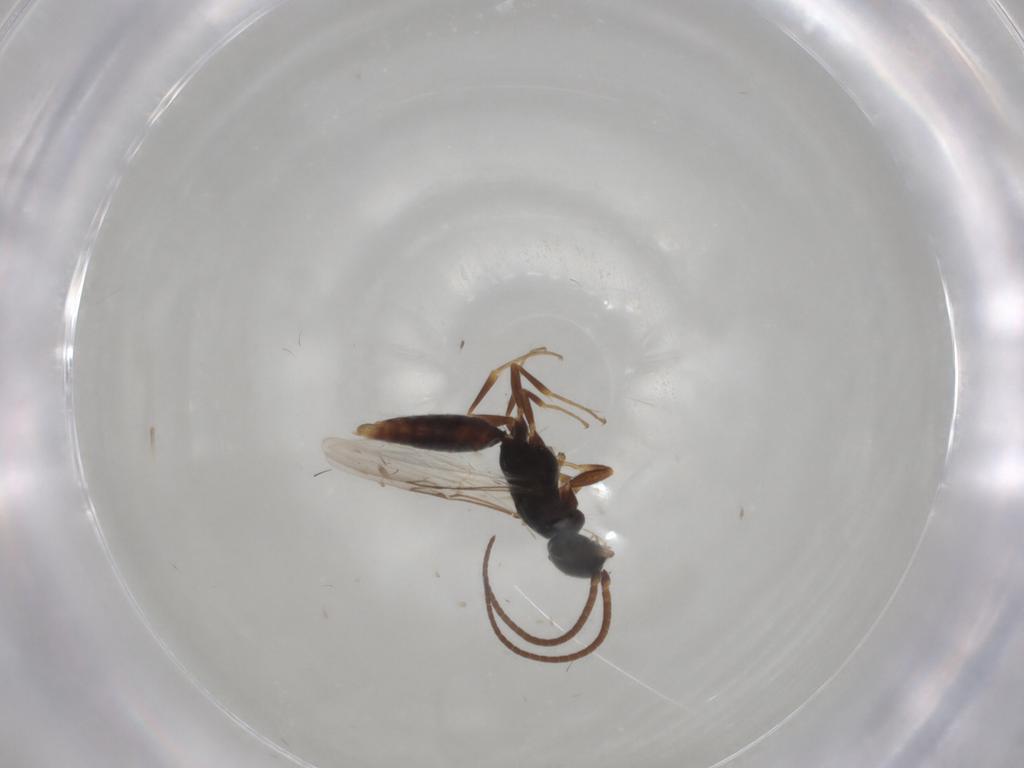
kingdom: Animalia
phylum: Arthropoda
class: Insecta
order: Hymenoptera
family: Sclerogibbidae
